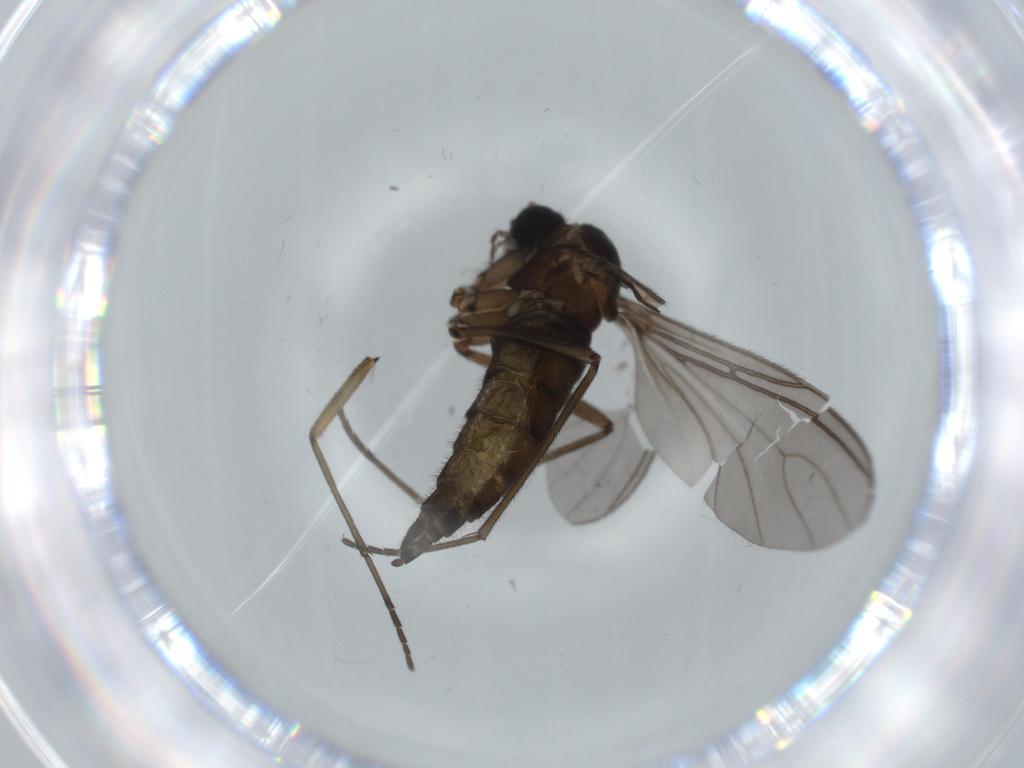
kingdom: Animalia
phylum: Arthropoda
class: Insecta
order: Diptera
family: Sciaridae
